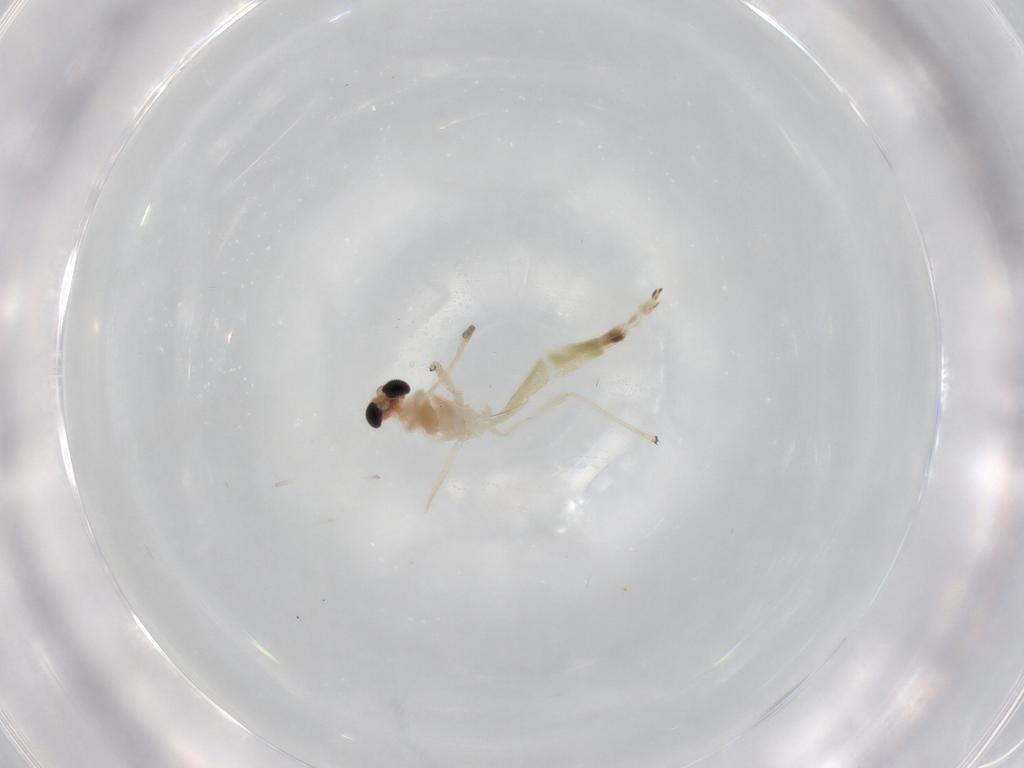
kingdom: Animalia
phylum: Arthropoda
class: Insecta
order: Diptera
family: Chironomidae
